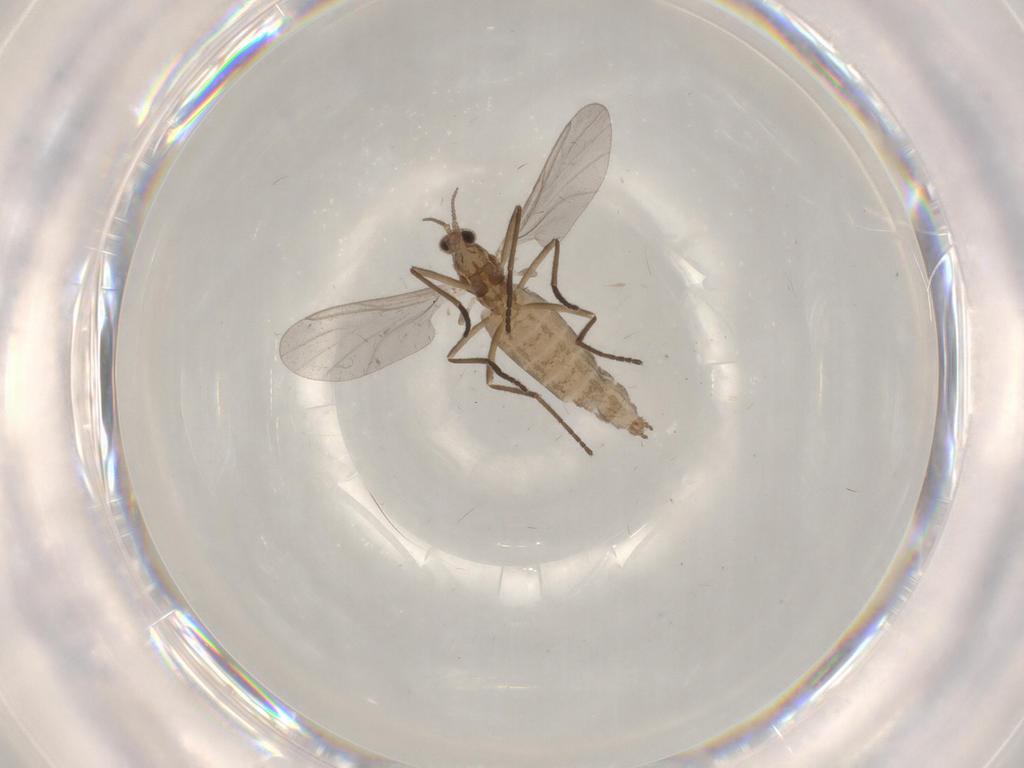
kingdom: Animalia
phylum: Arthropoda
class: Insecta
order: Diptera
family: Cecidomyiidae
